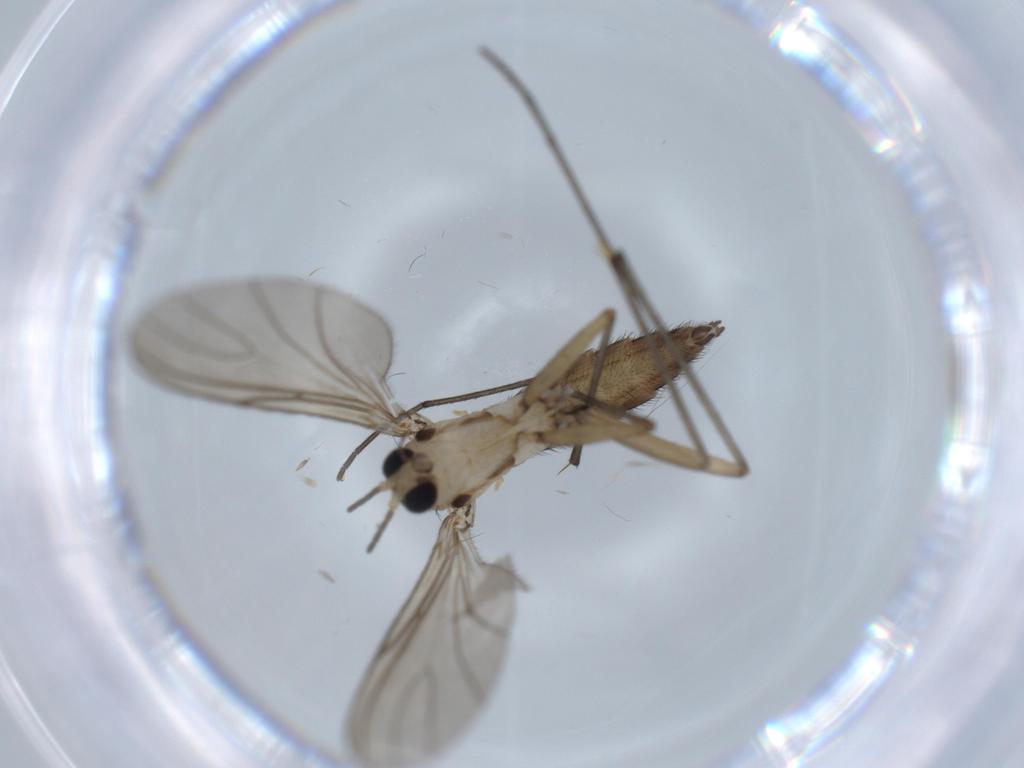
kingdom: Animalia
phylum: Arthropoda
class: Insecta
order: Diptera
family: Sciaridae
